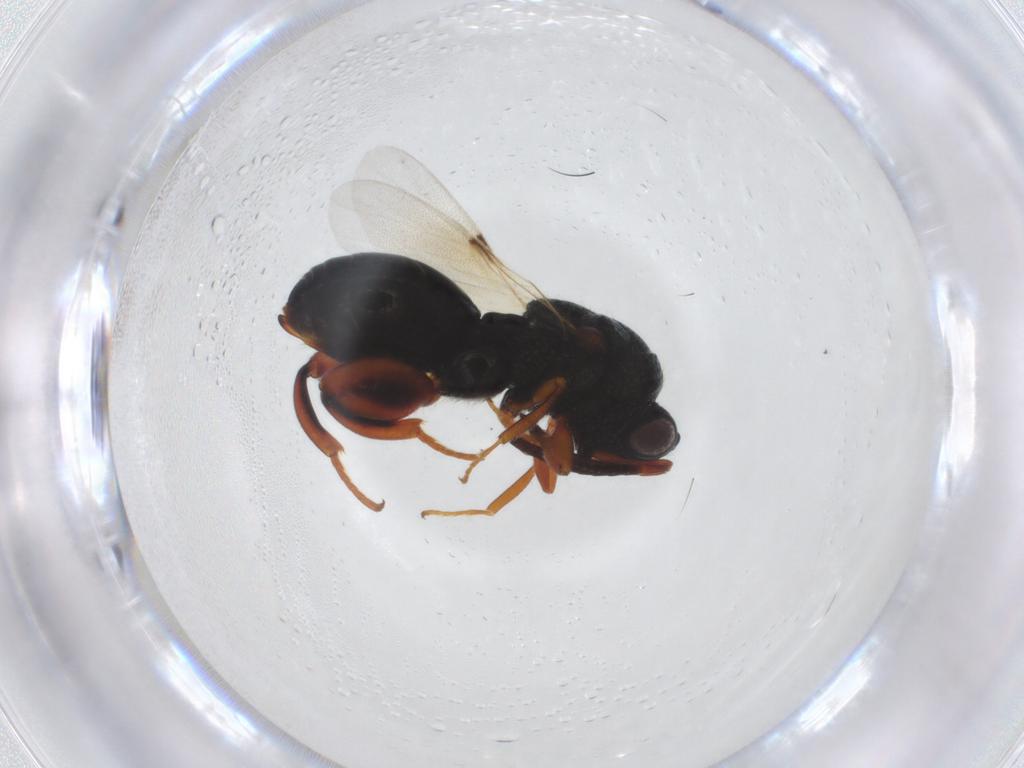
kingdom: Animalia
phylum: Arthropoda
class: Insecta
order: Hymenoptera
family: Chalcididae
